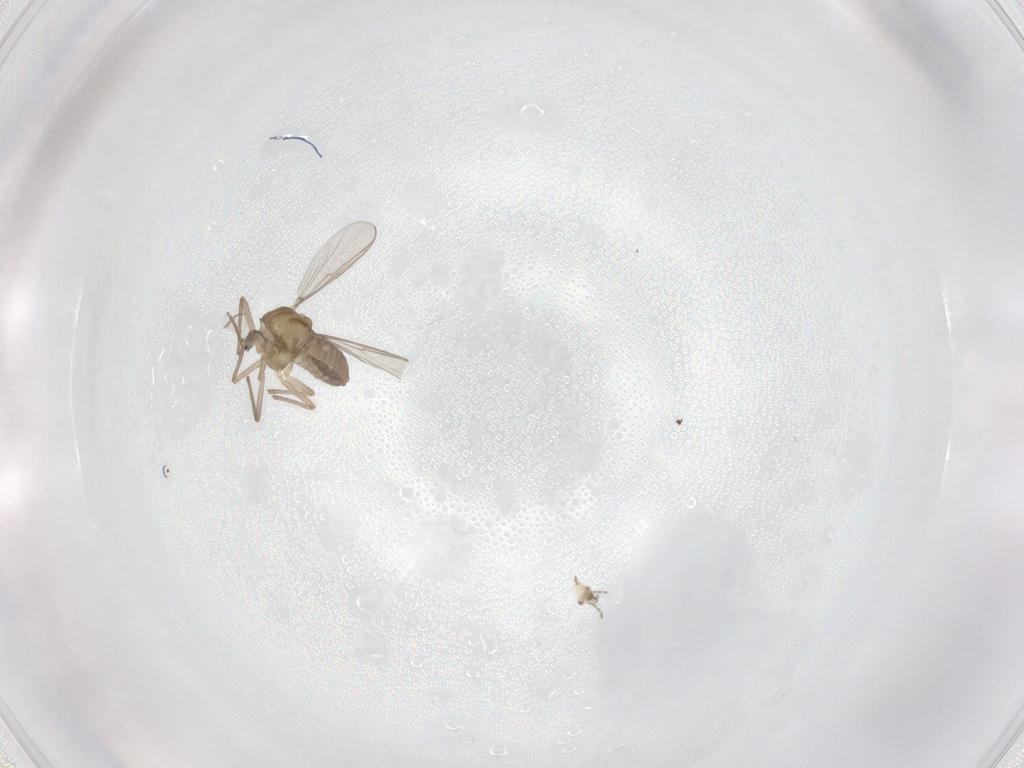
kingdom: Animalia
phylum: Arthropoda
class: Insecta
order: Diptera
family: Chironomidae
